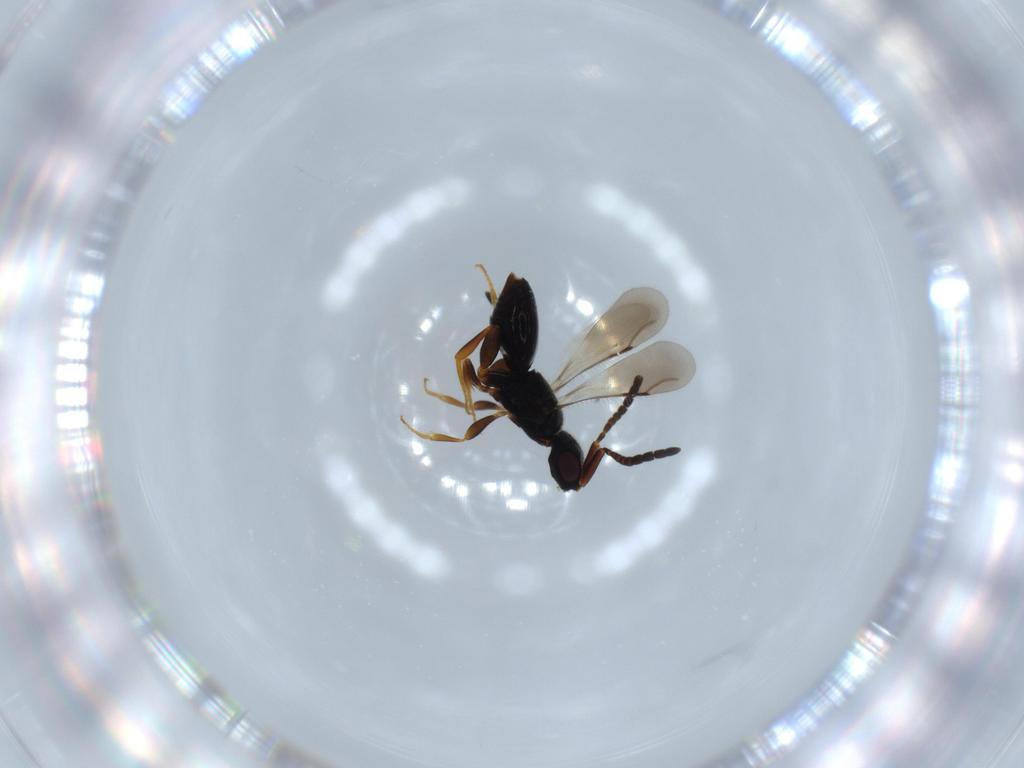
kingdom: Animalia
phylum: Arthropoda
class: Insecta
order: Hymenoptera
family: Ceraphronidae
